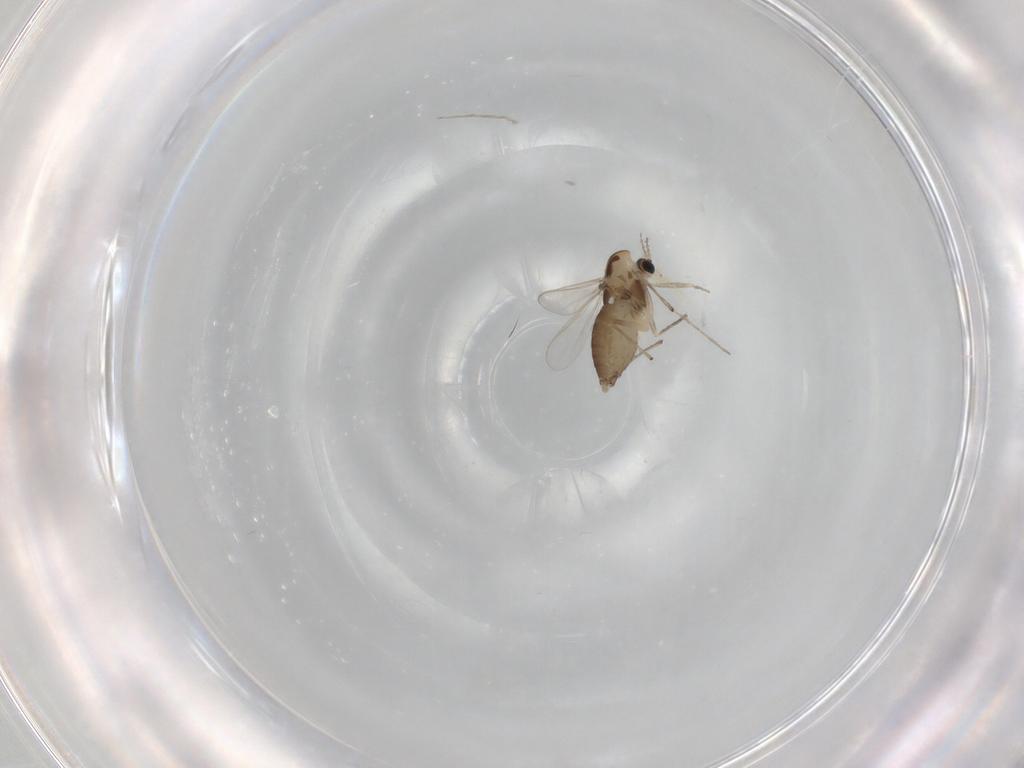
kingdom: Animalia
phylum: Arthropoda
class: Insecta
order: Diptera
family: Chironomidae
